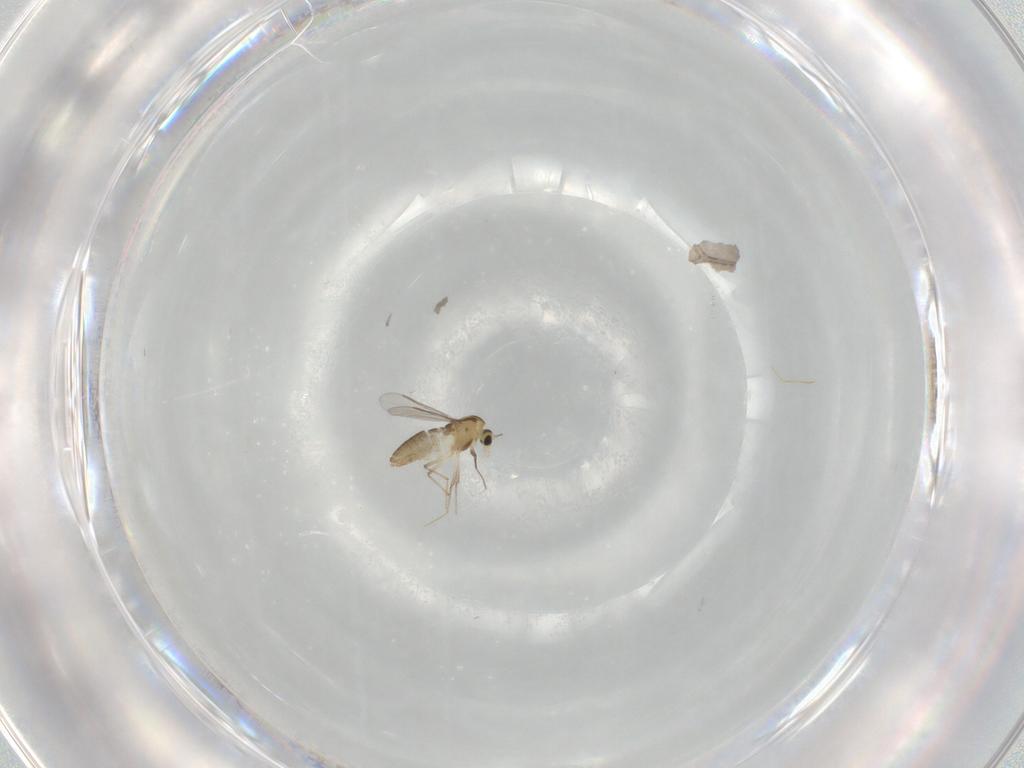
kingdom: Animalia
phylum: Arthropoda
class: Insecta
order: Diptera
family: Chironomidae
